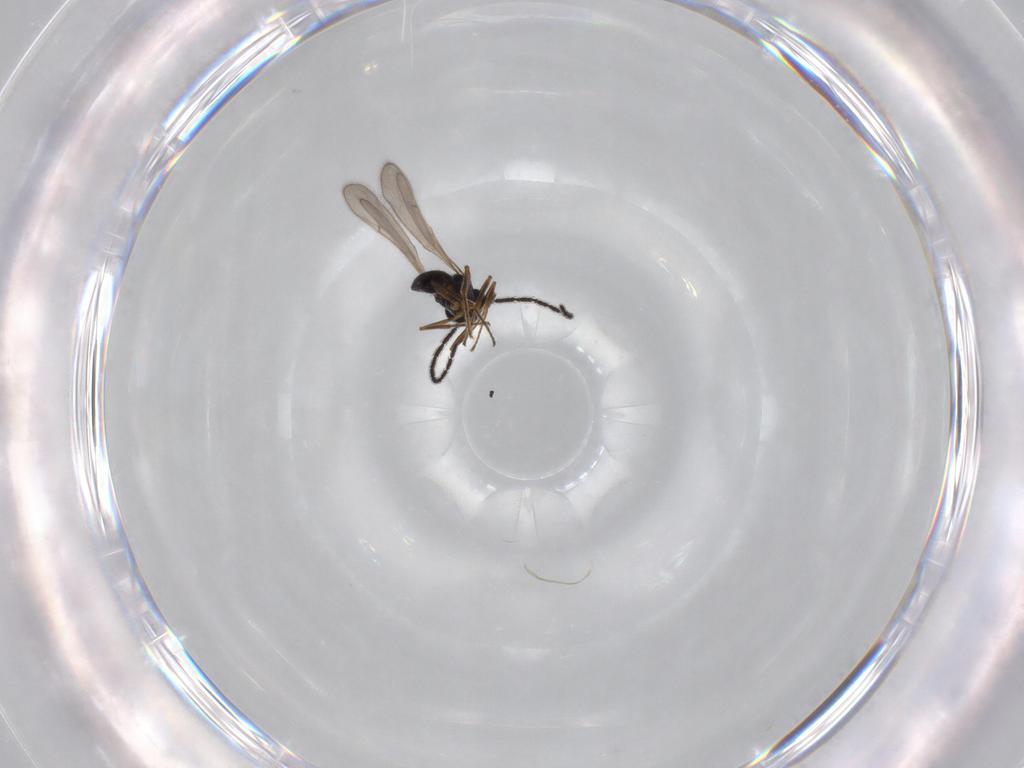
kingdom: Animalia
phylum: Arthropoda
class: Insecta
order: Hymenoptera
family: Scelionidae
